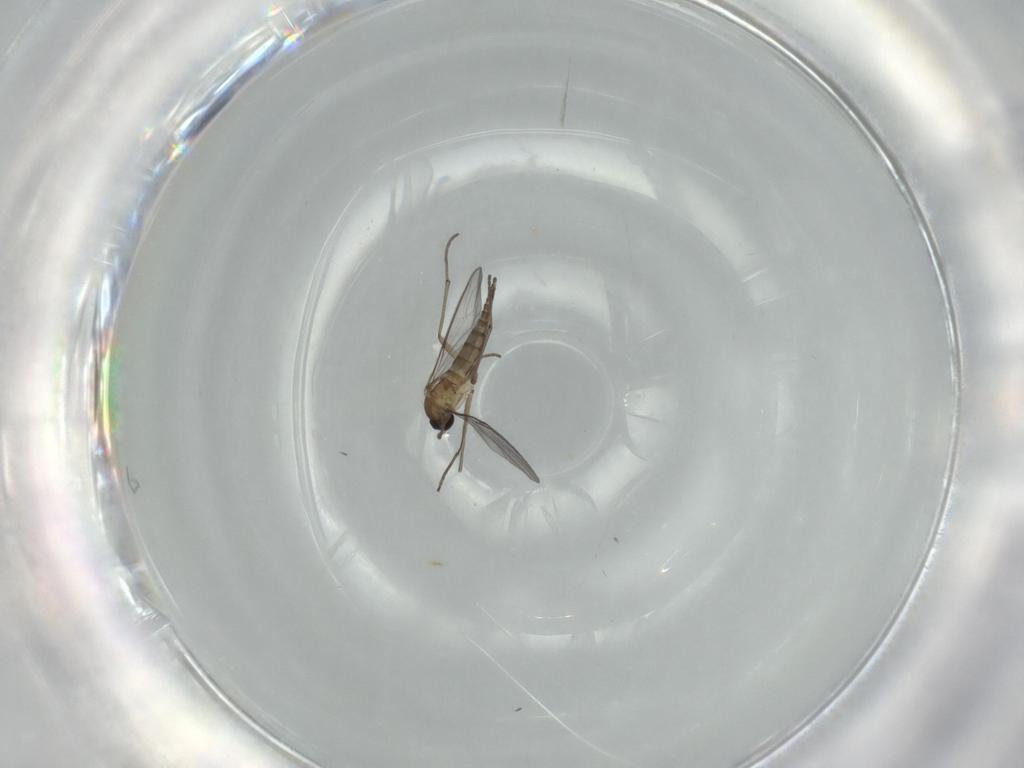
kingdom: Animalia
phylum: Arthropoda
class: Insecta
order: Diptera
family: Sciaridae
